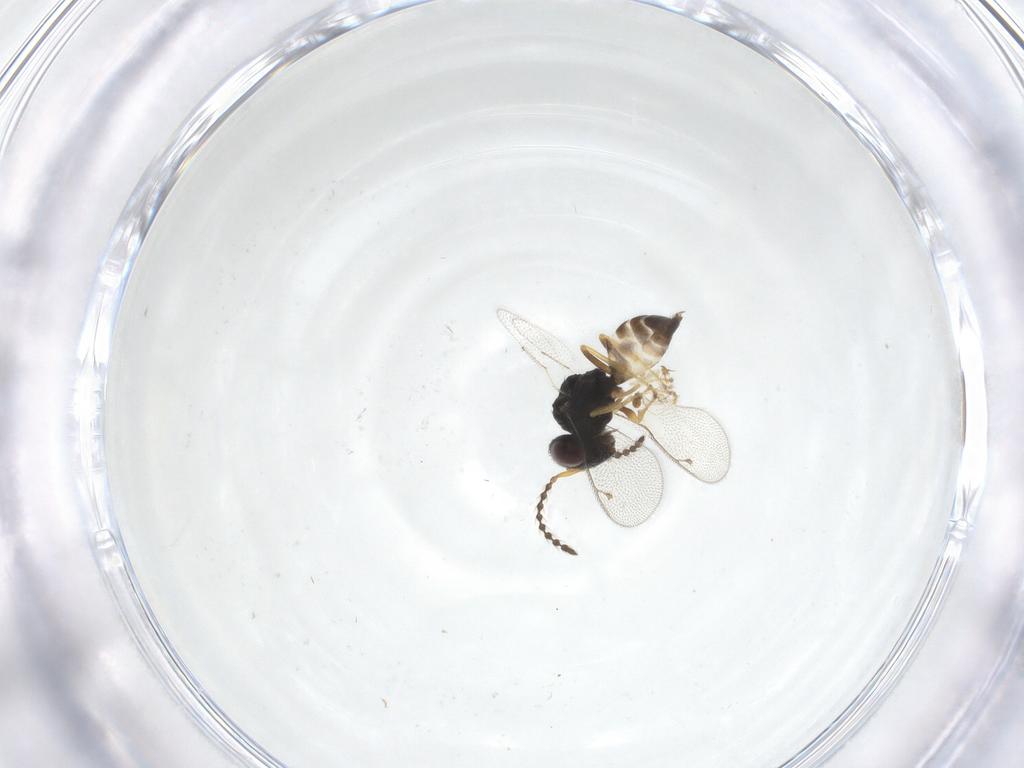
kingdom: Animalia
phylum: Arthropoda
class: Insecta
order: Hymenoptera
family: Pteromalidae
